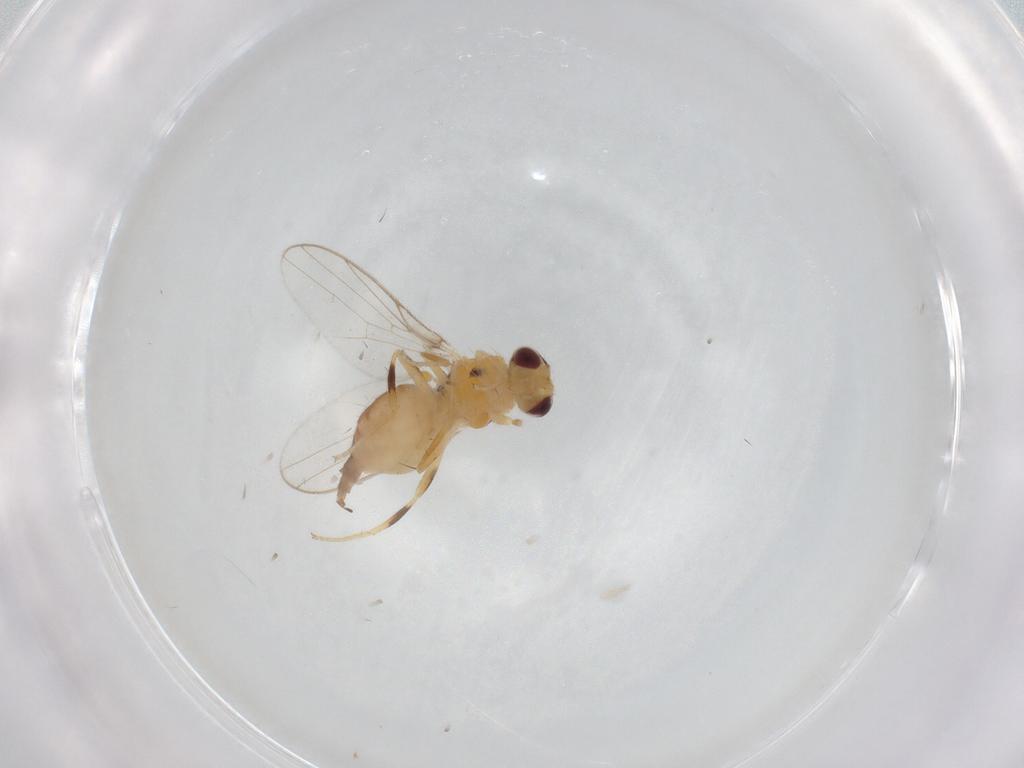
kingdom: Animalia
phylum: Arthropoda
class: Insecta
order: Diptera
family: Chloropidae
